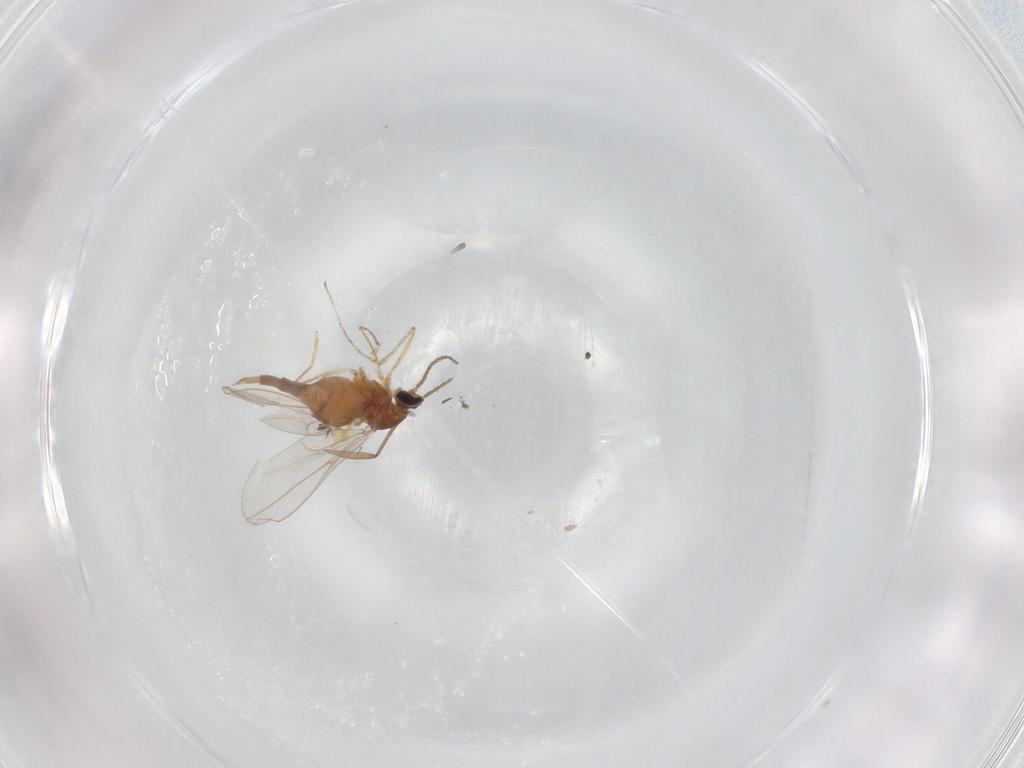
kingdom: Animalia
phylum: Arthropoda
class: Insecta
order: Diptera
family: Cecidomyiidae
